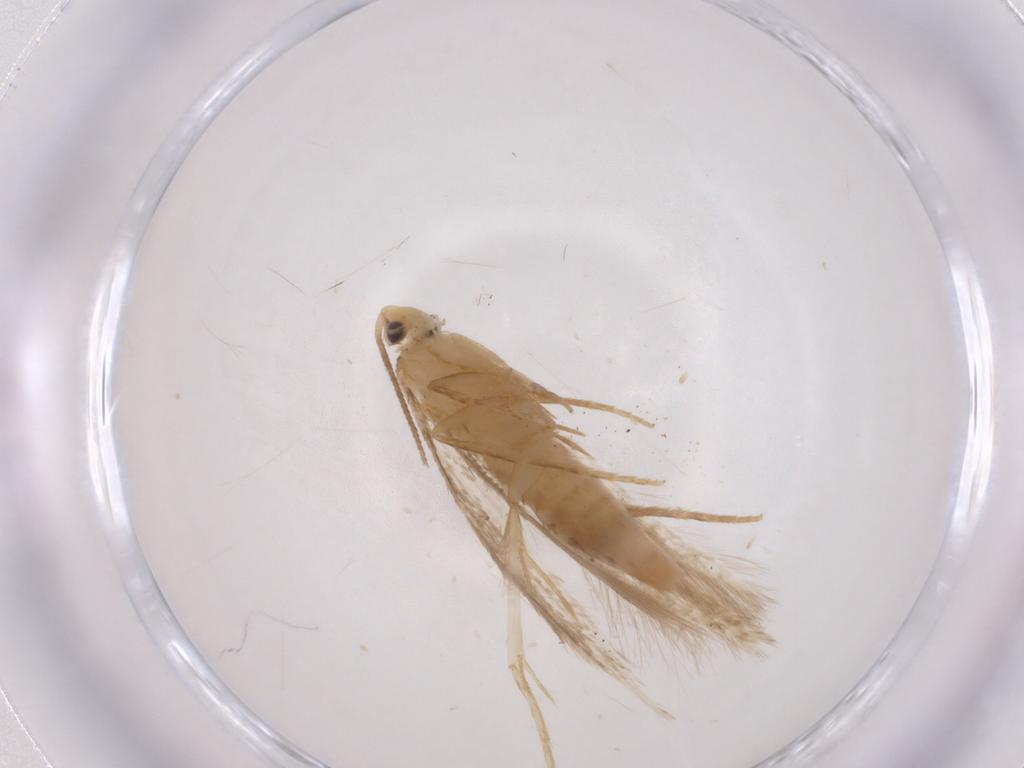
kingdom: Animalia
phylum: Arthropoda
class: Insecta
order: Lepidoptera
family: Tineidae
